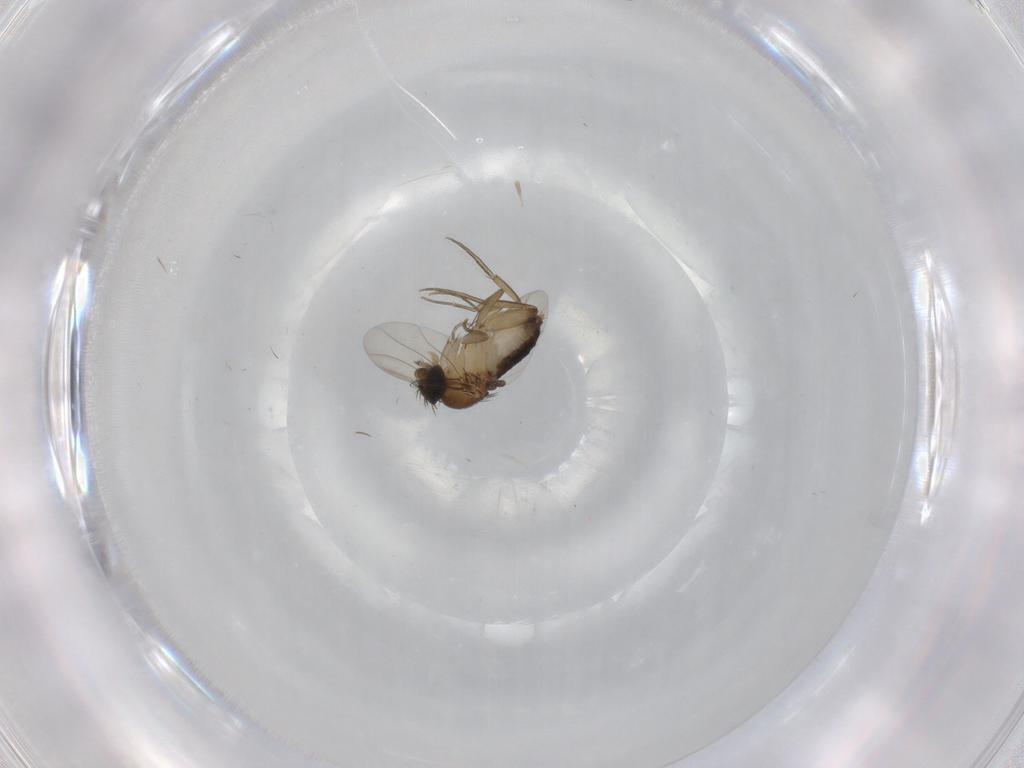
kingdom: Animalia
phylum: Arthropoda
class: Insecta
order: Diptera
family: Phoridae
